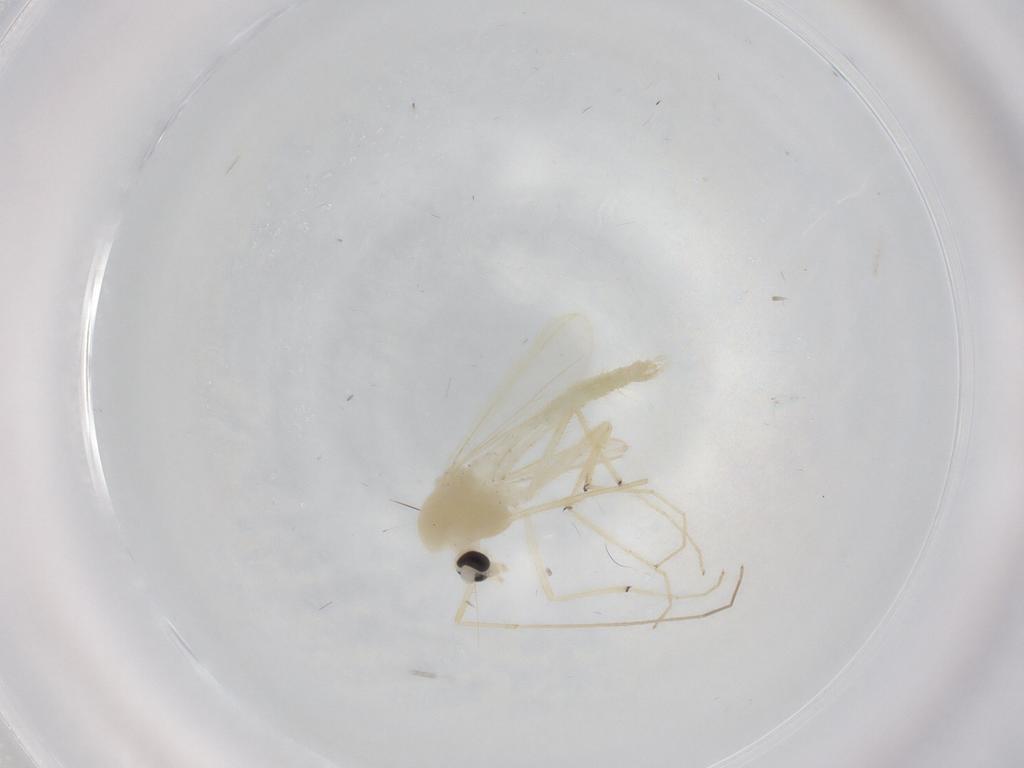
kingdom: Animalia
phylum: Arthropoda
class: Insecta
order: Diptera
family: Chironomidae
